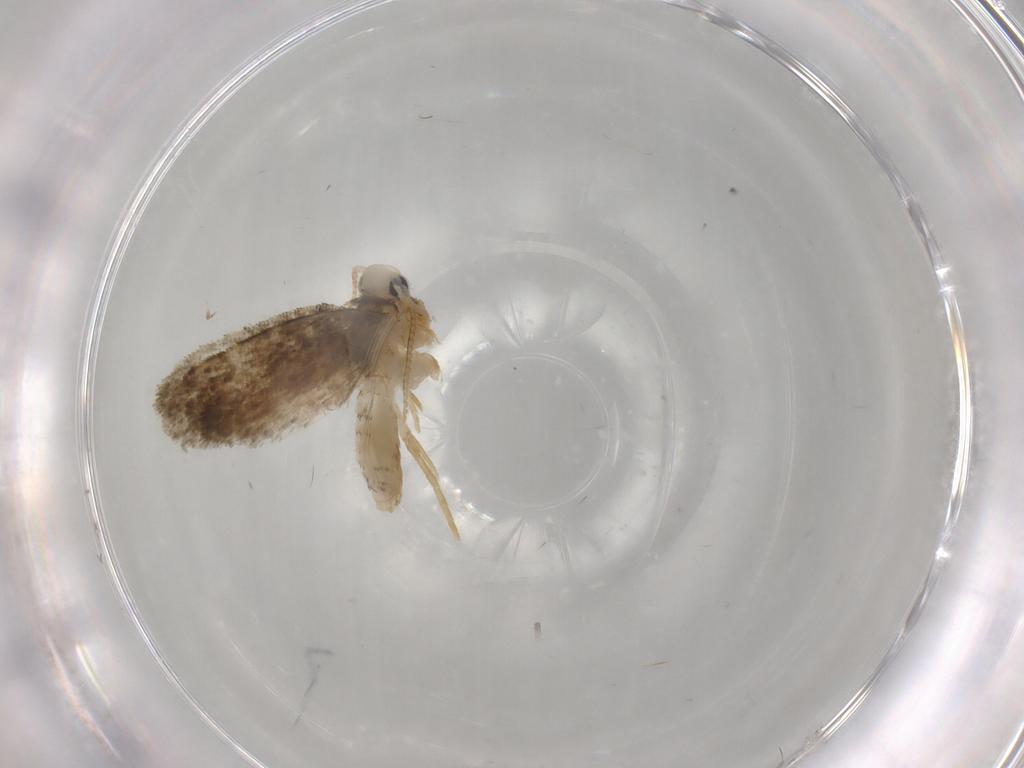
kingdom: Animalia
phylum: Arthropoda
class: Insecta
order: Lepidoptera
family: Psychidae
